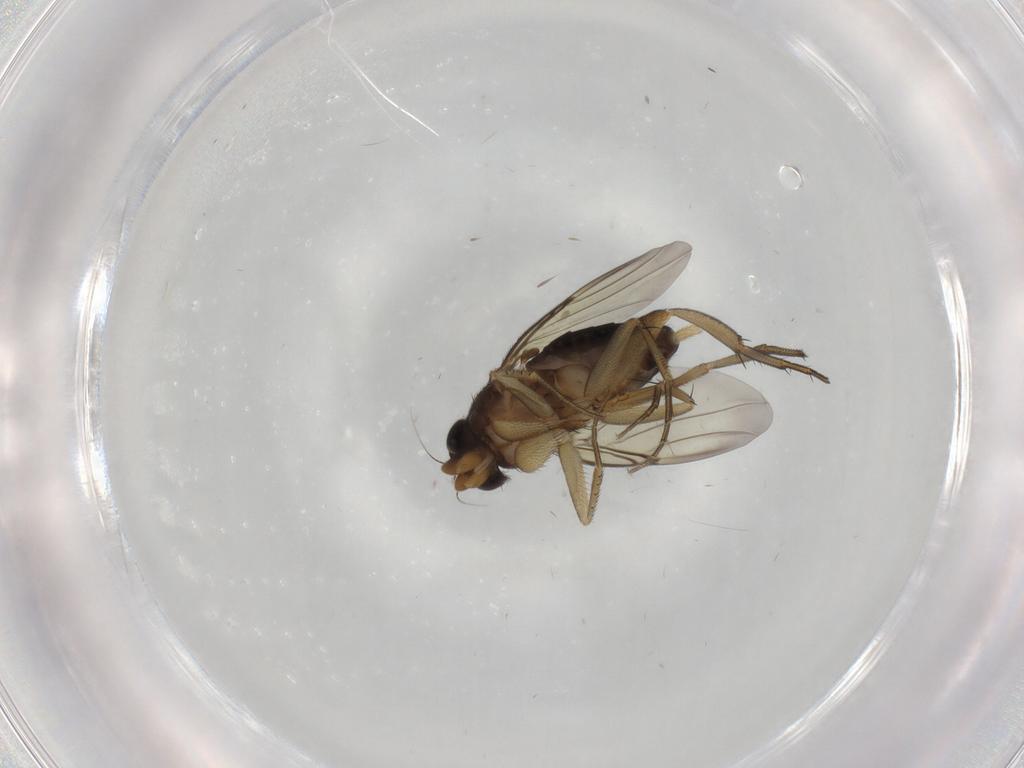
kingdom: Animalia
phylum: Arthropoda
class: Insecta
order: Diptera
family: Phoridae
